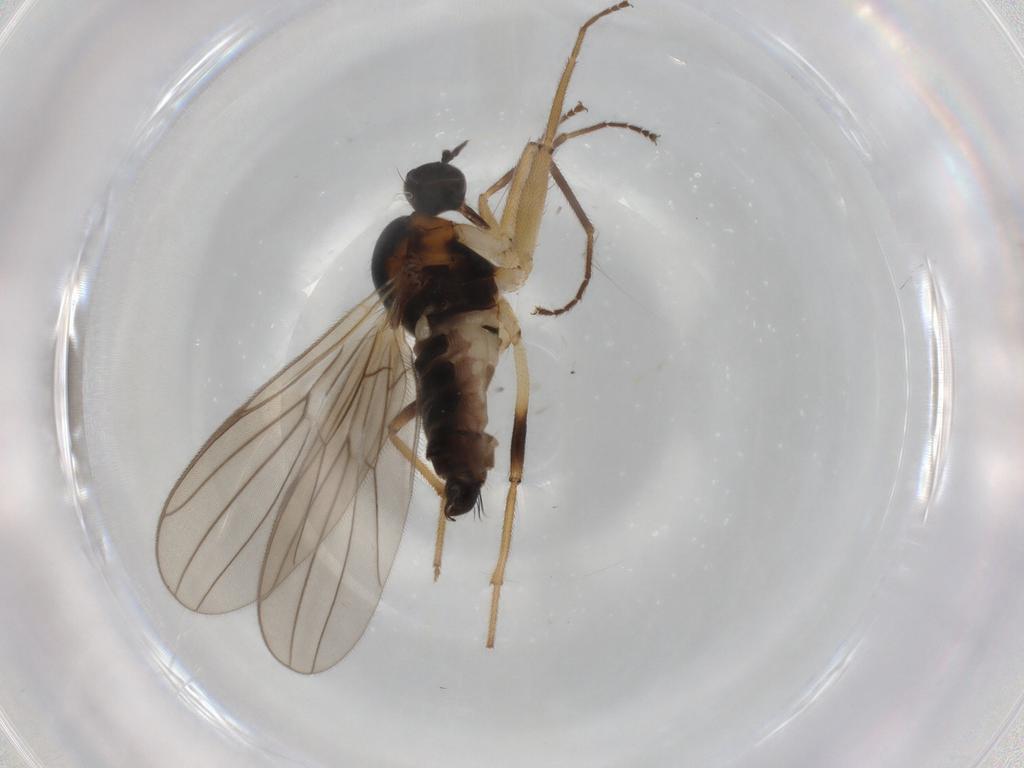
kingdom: Animalia
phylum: Arthropoda
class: Insecta
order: Diptera
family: Hybotidae
